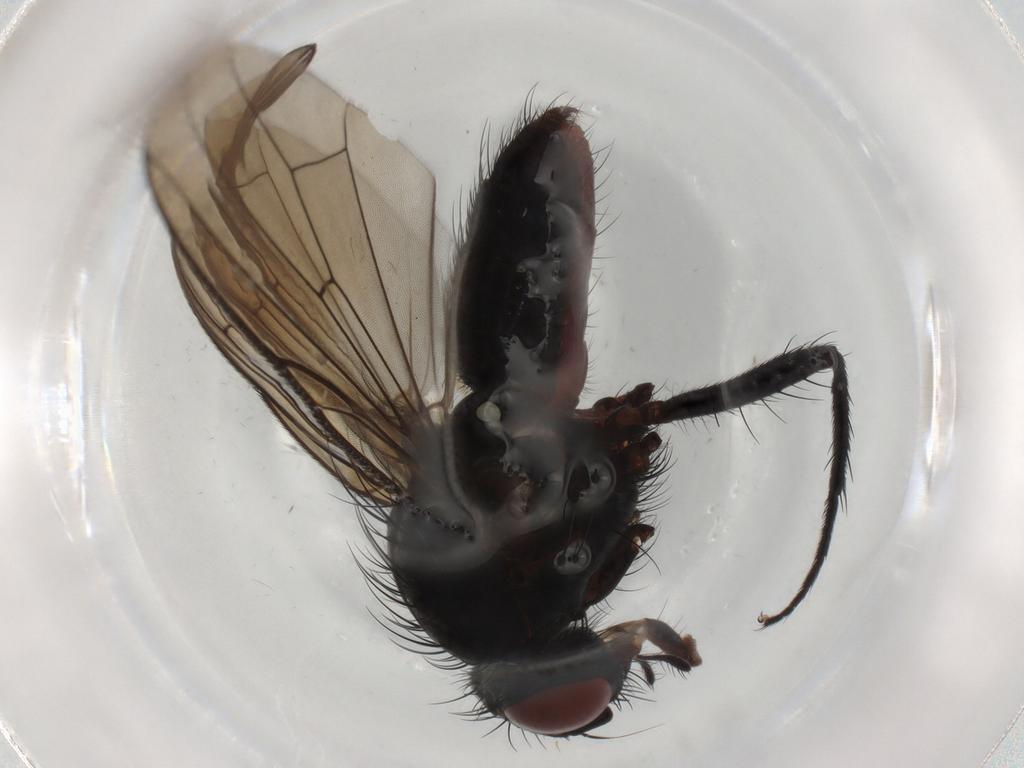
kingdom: Animalia
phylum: Arthropoda
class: Insecta
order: Diptera
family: Anthomyiidae
